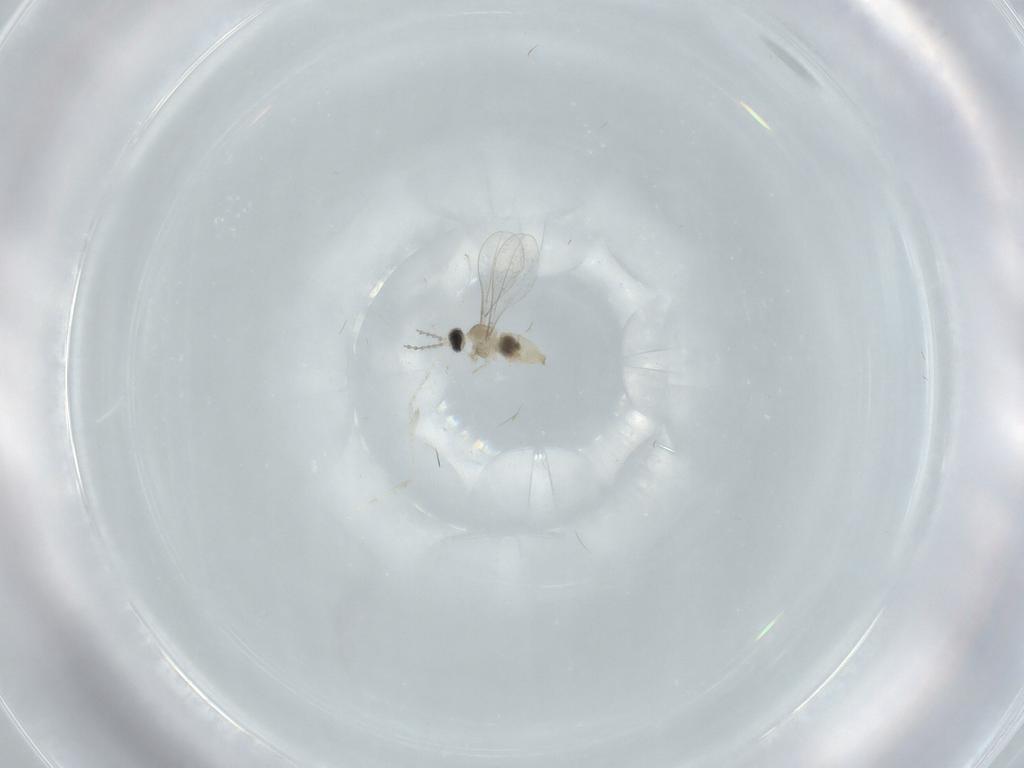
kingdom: Animalia
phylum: Arthropoda
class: Insecta
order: Diptera
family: Cecidomyiidae
